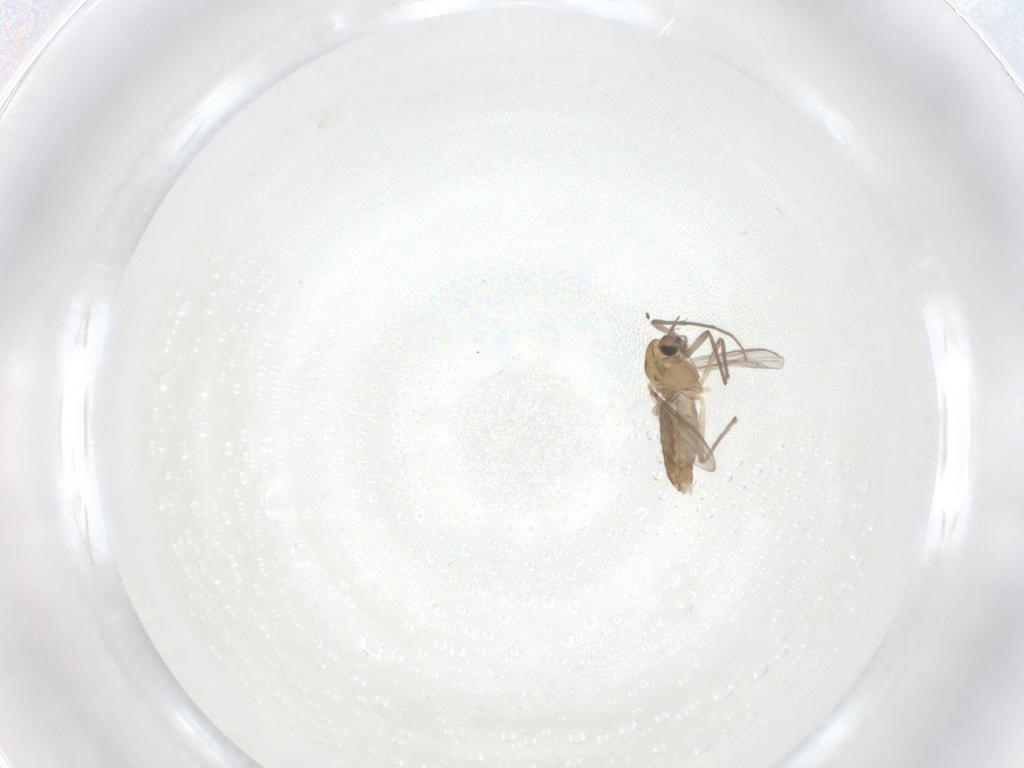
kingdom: Animalia
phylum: Arthropoda
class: Insecta
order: Diptera
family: Chironomidae
